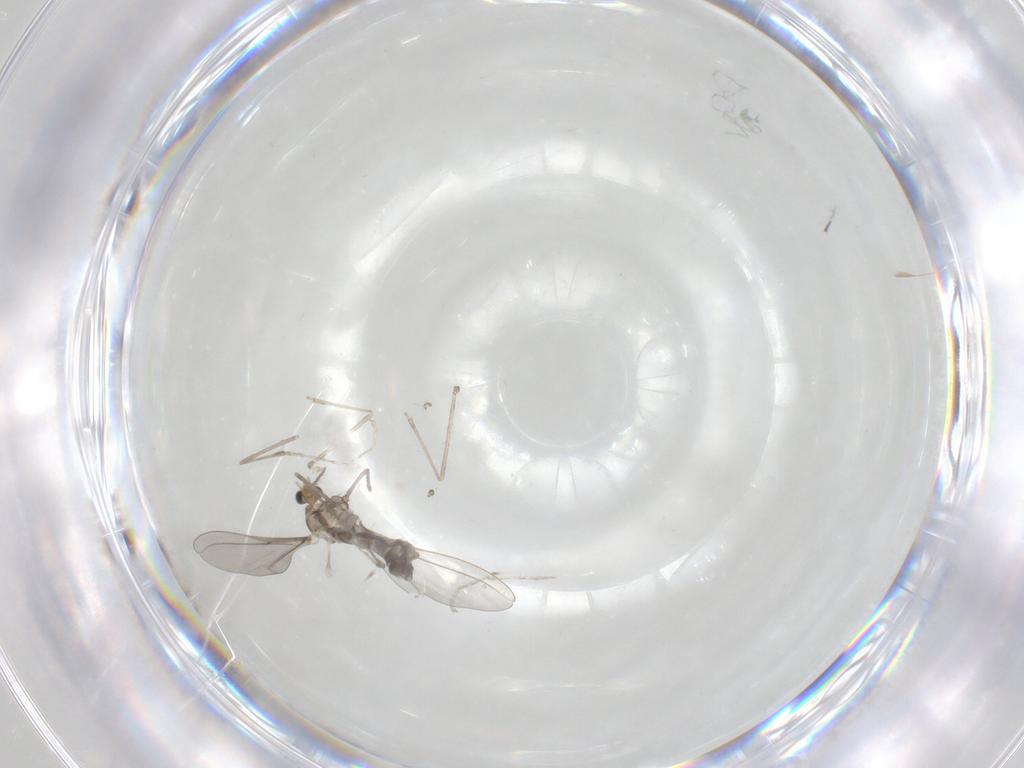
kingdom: Animalia
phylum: Arthropoda
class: Insecta
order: Diptera
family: Cecidomyiidae
